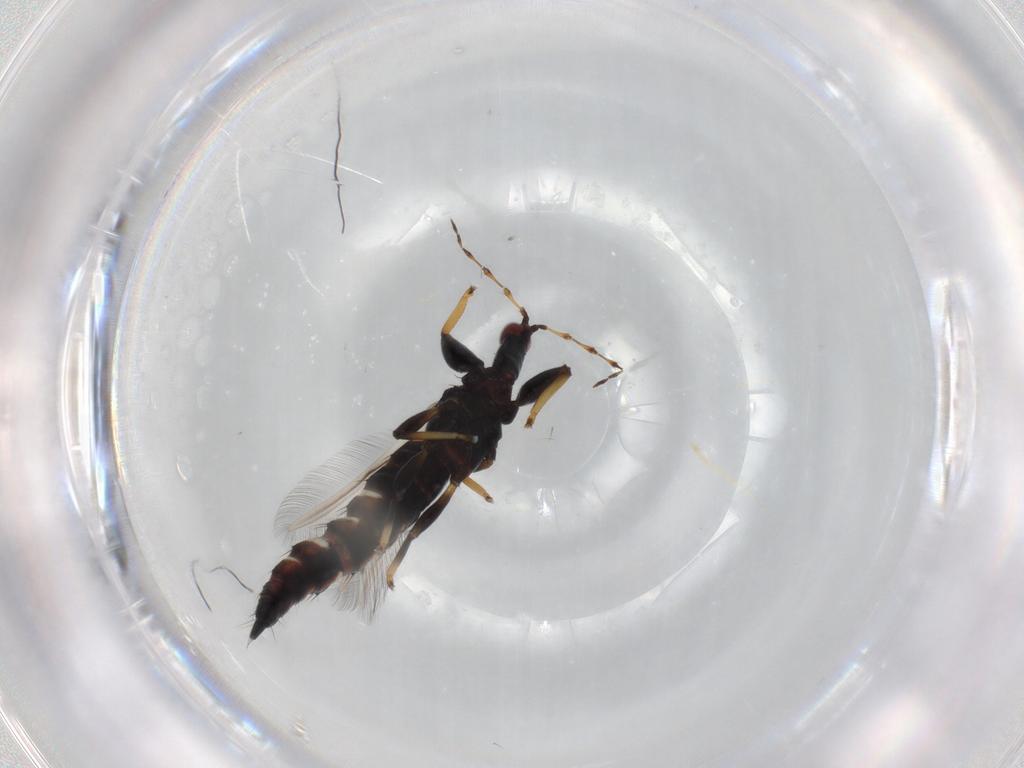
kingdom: Animalia
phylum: Arthropoda
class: Insecta
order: Thysanoptera
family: Phlaeothripidae
